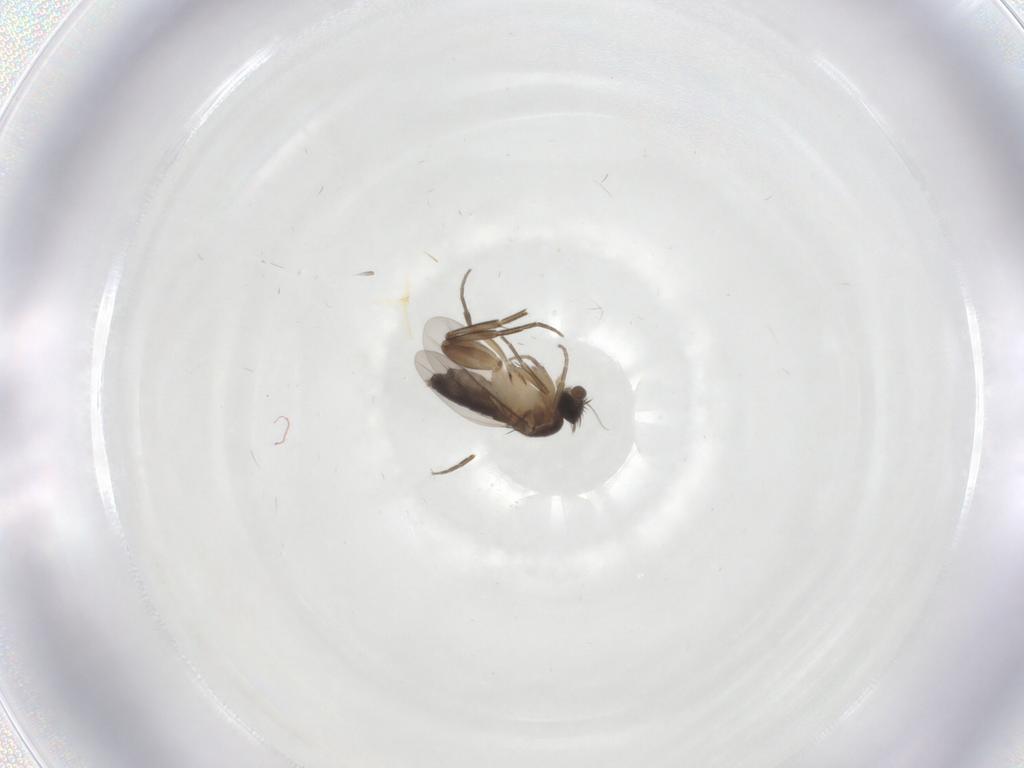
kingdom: Animalia
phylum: Arthropoda
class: Insecta
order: Diptera
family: Phoridae
